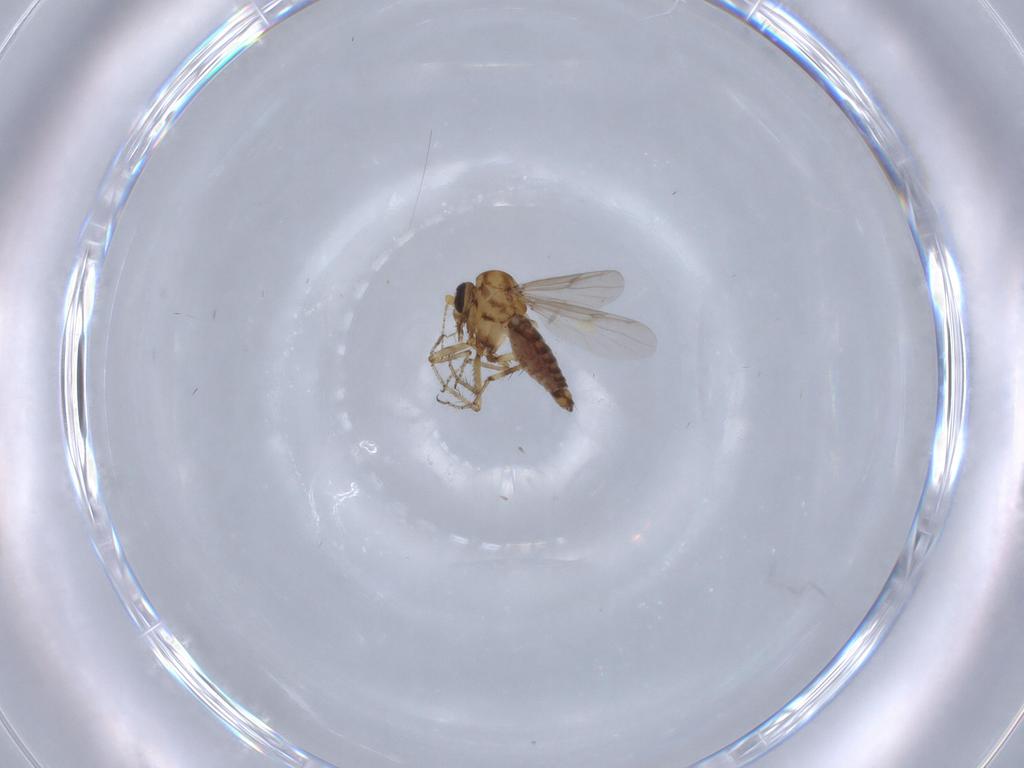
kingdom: Animalia
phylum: Arthropoda
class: Insecta
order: Diptera
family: Ceratopogonidae
